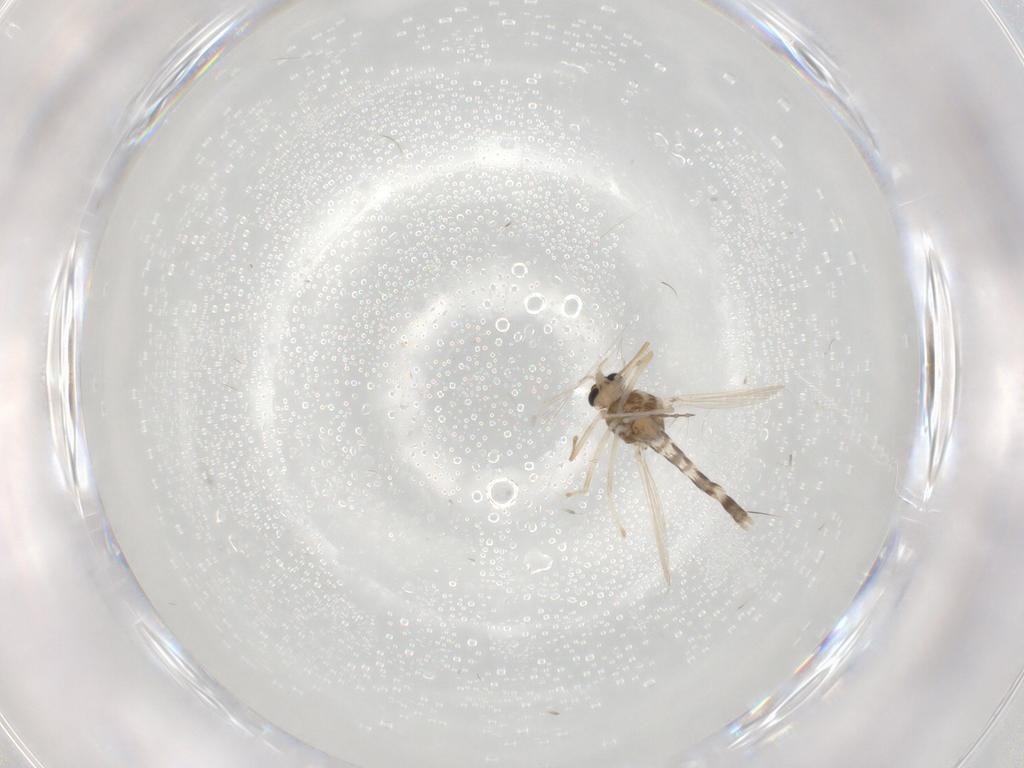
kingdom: Animalia
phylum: Arthropoda
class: Insecta
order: Diptera
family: Chironomidae
